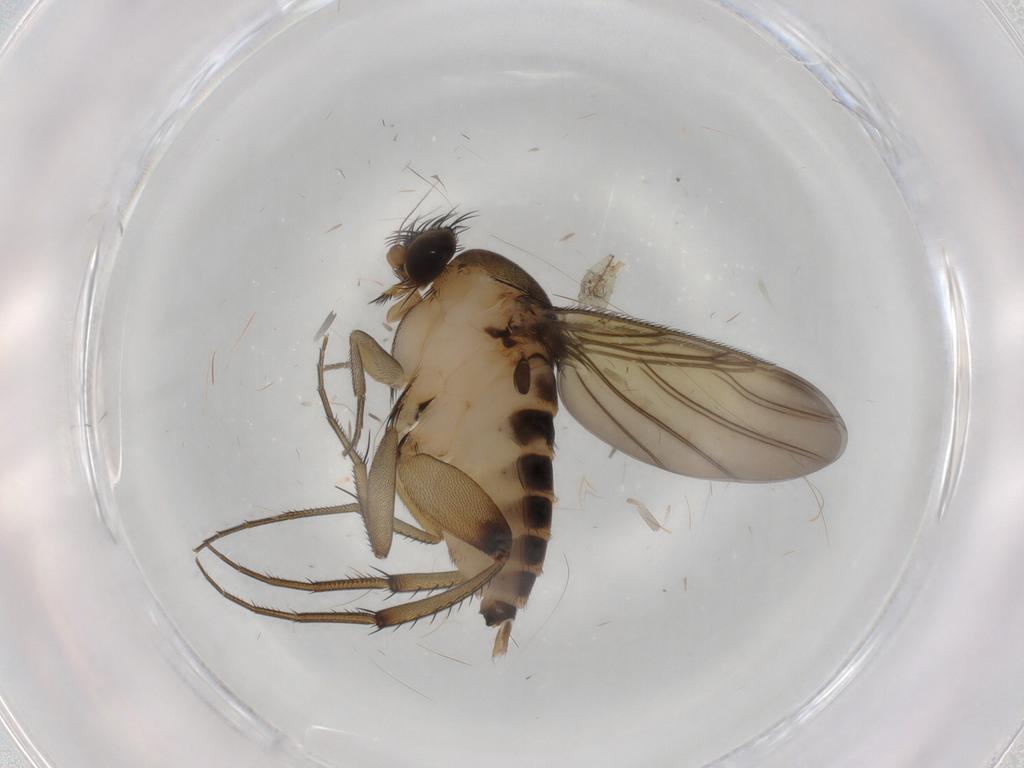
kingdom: Animalia
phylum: Arthropoda
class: Insecta
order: Diptera
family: Phoridae
